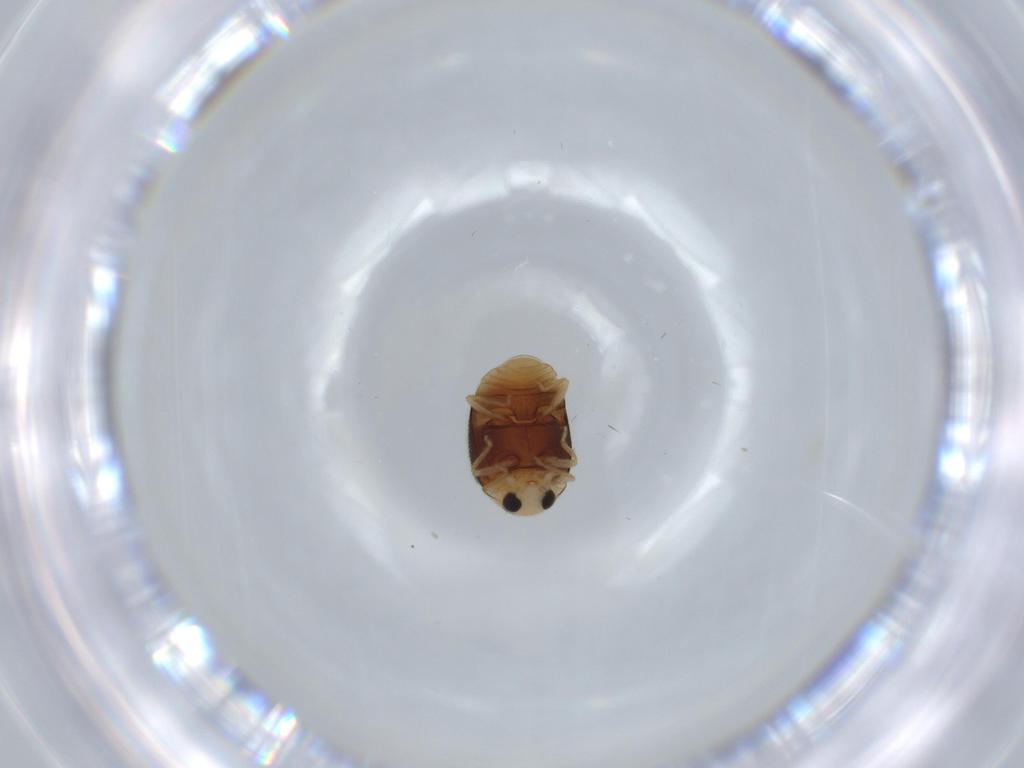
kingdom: Animalia
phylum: Arthropoda
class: Insecta
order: Coleoptera
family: Coccinellidae
